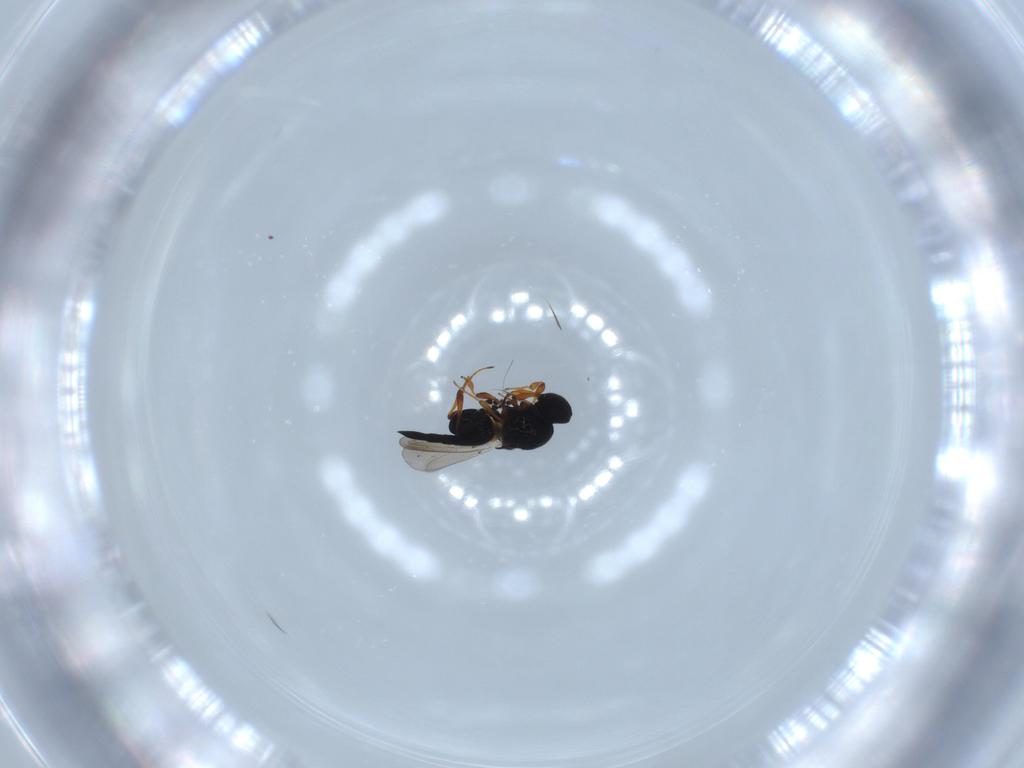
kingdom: Animalia
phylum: Arthropoda
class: Insecta
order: Hymenoptera
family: Platygastridae
